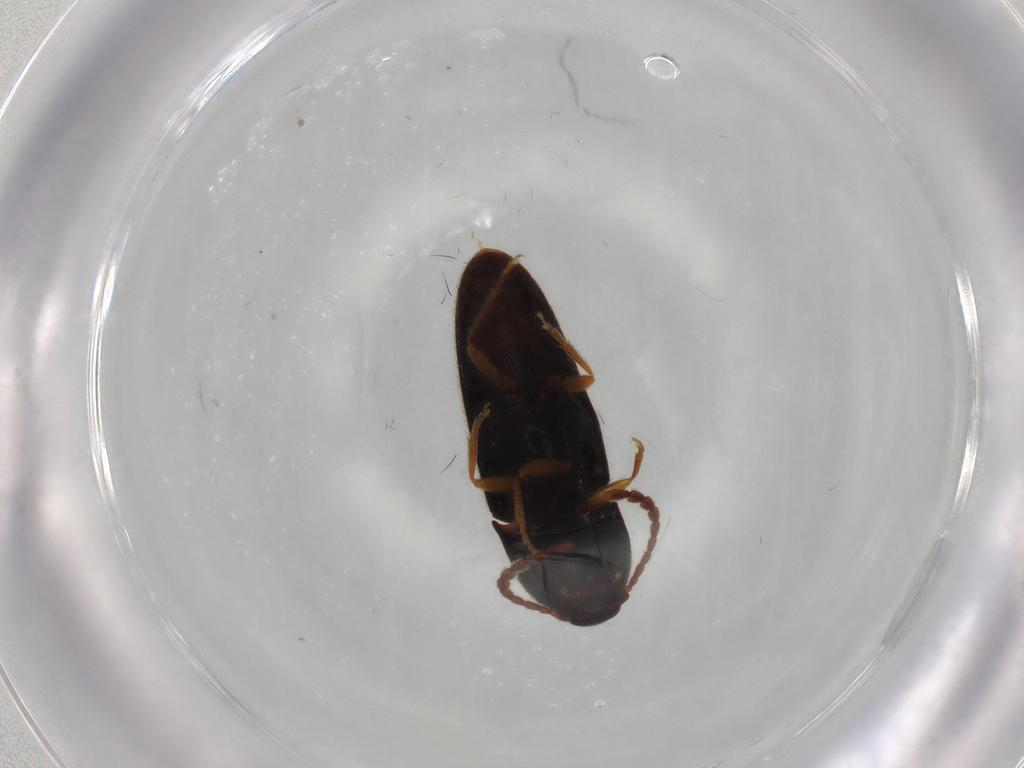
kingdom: Animalia
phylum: Arthropoda
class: Insecta
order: Coleoptera
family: Elateridae
